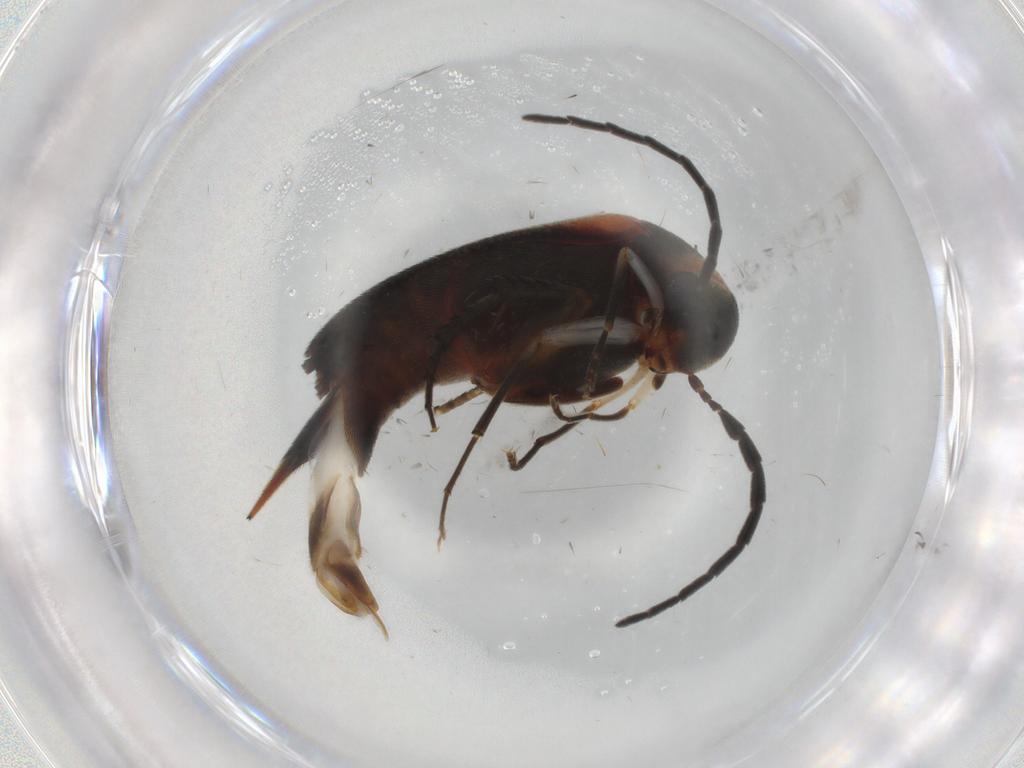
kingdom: Animalia
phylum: Arthropoda
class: Insecta
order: Coleoptera
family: Mordellidae
